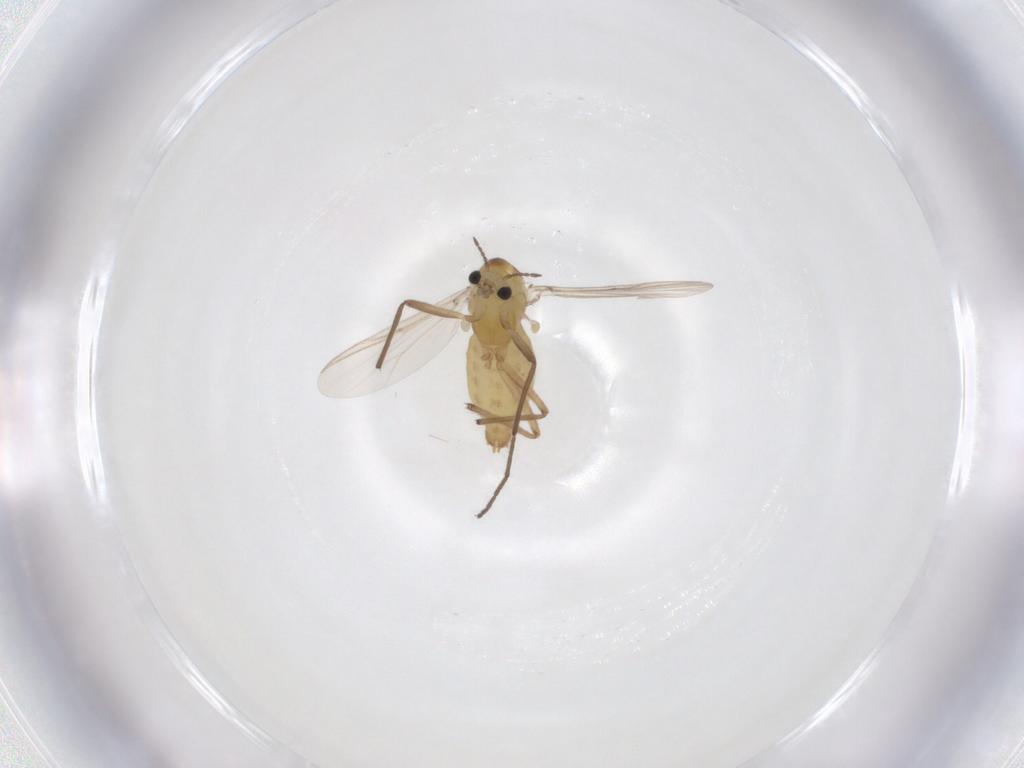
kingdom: Animalia
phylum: Arthropoda
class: Insecta
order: Diptera
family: Chironomidae
